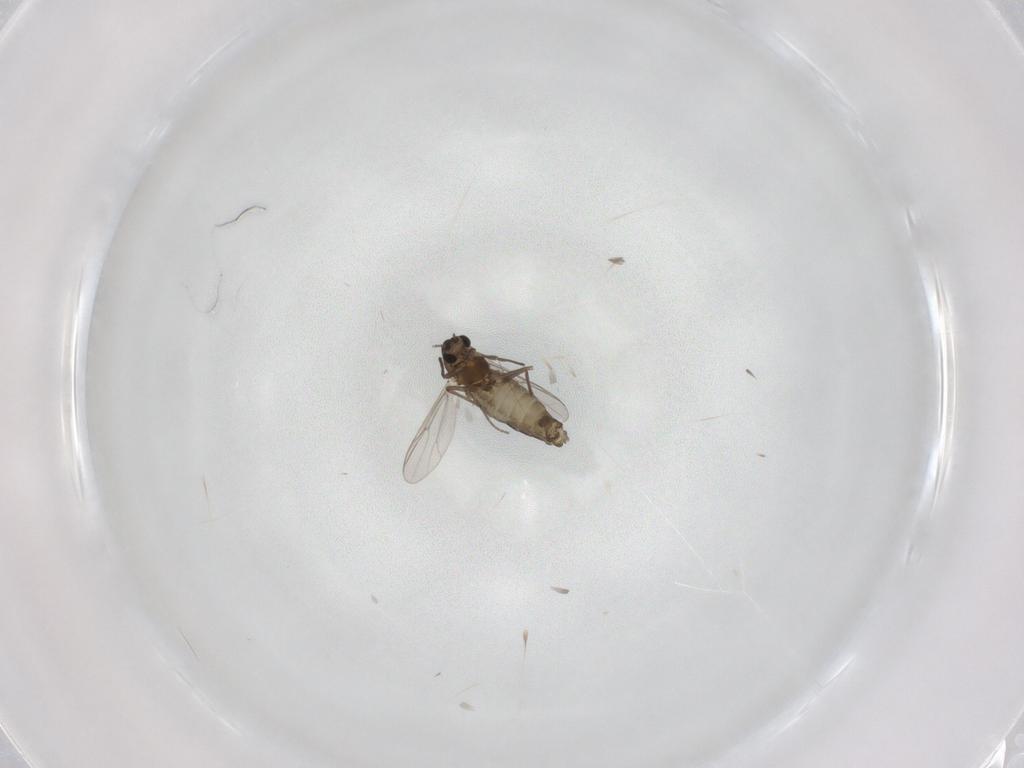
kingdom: Animalia
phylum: Arthropoda
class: Insecta
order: Diptera
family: Chironomidae
